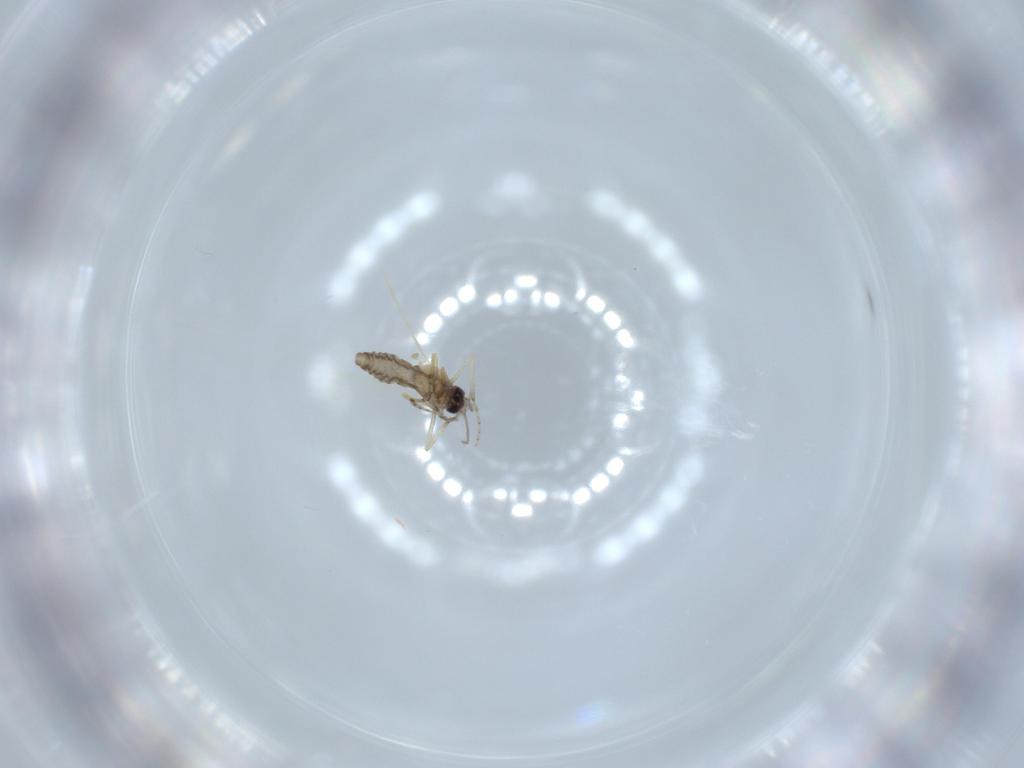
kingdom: Animalia
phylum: Arthropoda
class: Insecta
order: Diptera
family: Ceratopogonidae
